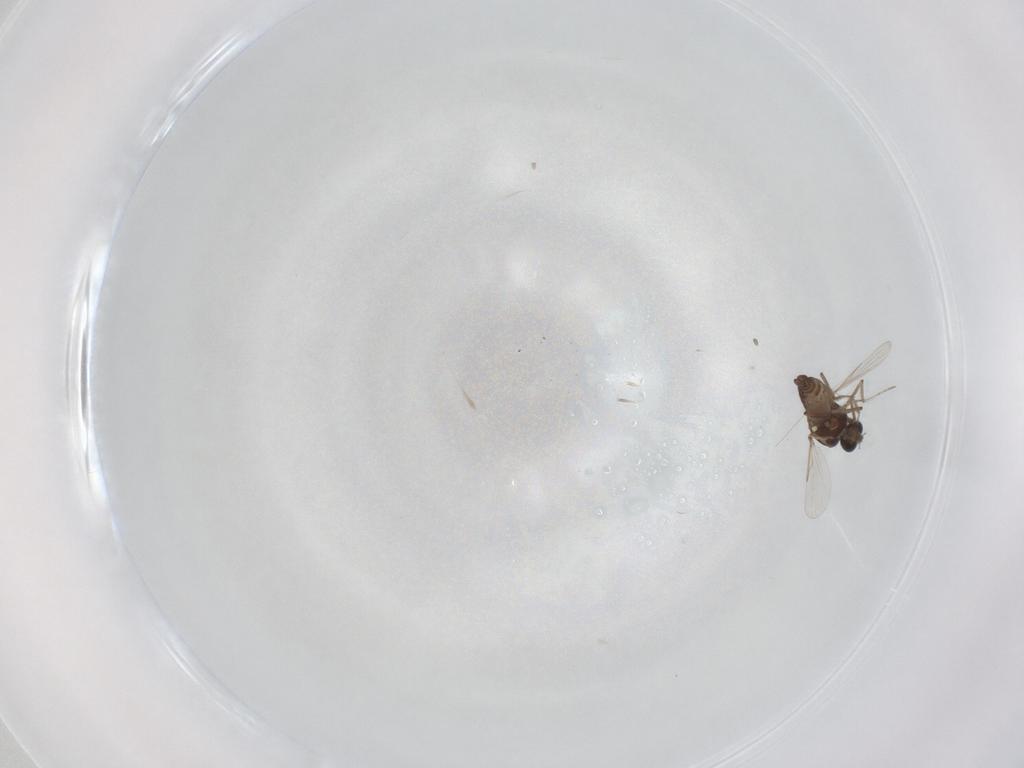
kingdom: Animalia
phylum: Arthropoda
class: Insecta
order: Diptera
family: Ceratopogonidae
